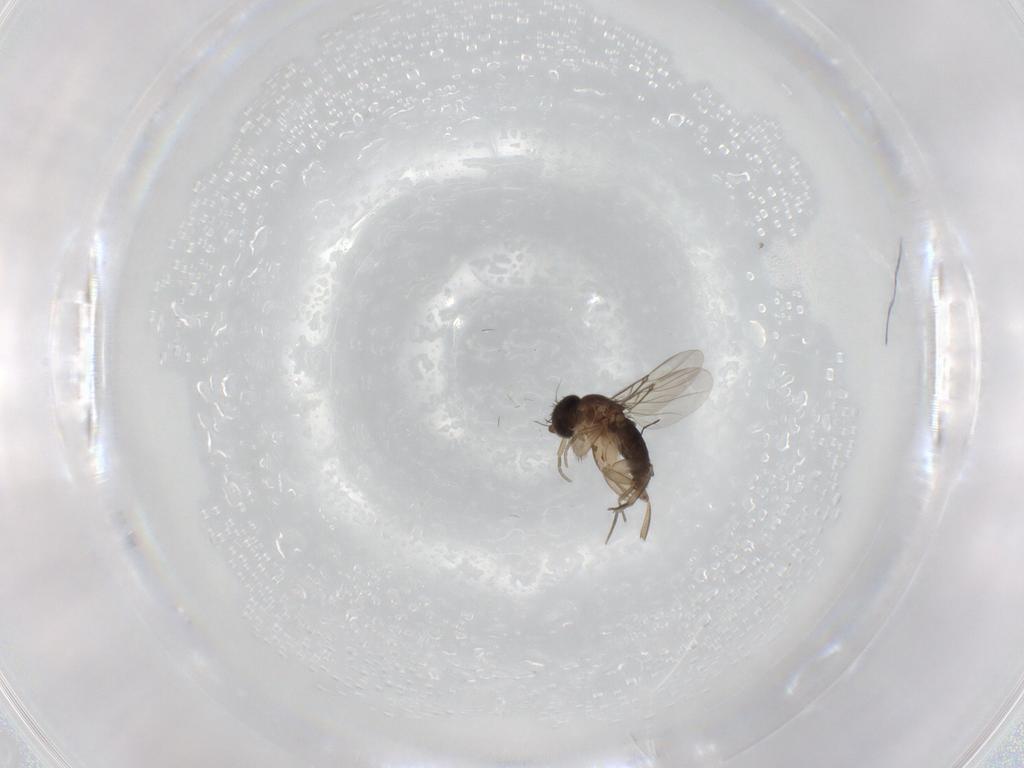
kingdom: Animalia
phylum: Arthropoda
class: Insecta
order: Diptera
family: Phoridae
